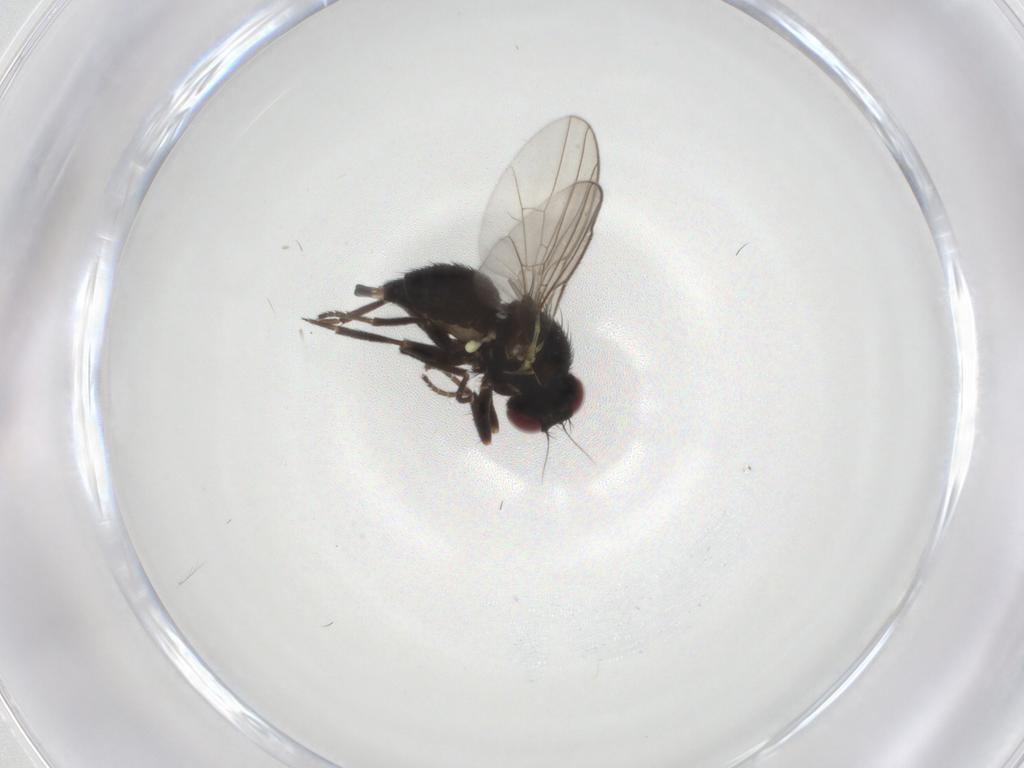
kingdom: Animalia
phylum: Arthropoda
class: Insecta
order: Diptera
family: Agromyzidae
